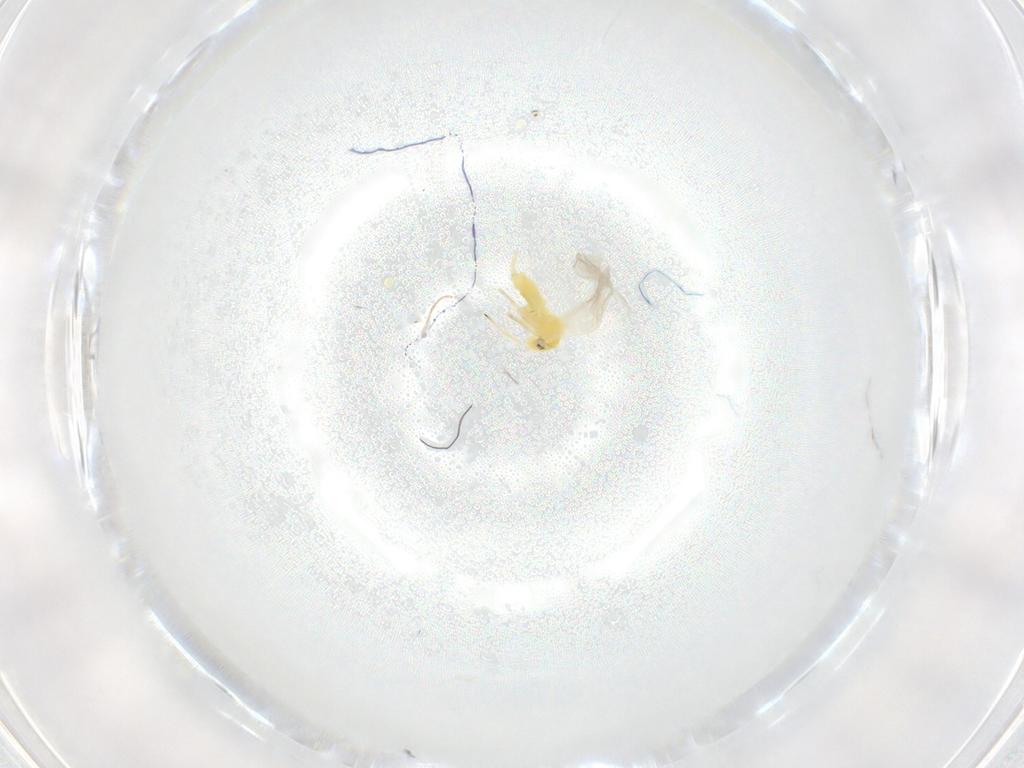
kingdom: Animalia
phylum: Arthropoda
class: Insecta
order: Hemiptera
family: Aleyrodidae
